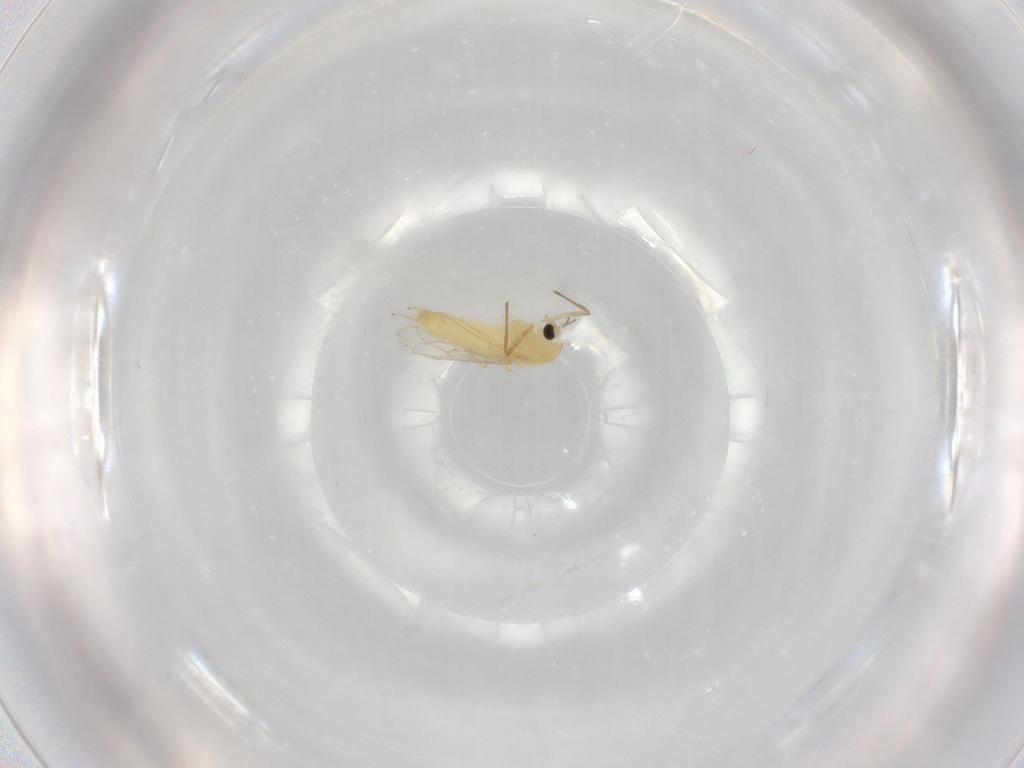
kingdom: Animalia
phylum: Arthropoda
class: Insecta
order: Diptera
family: Chironomidae
